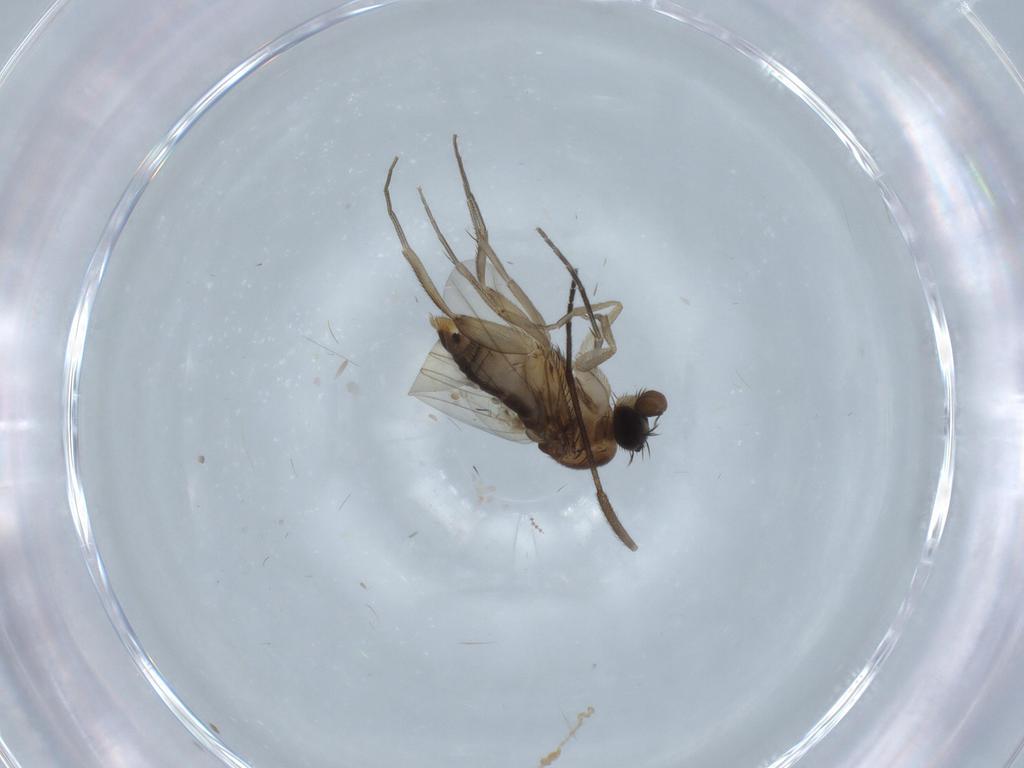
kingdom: Animalia
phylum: Arthropoda
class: Insecta
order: Diptera
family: Phoridae
